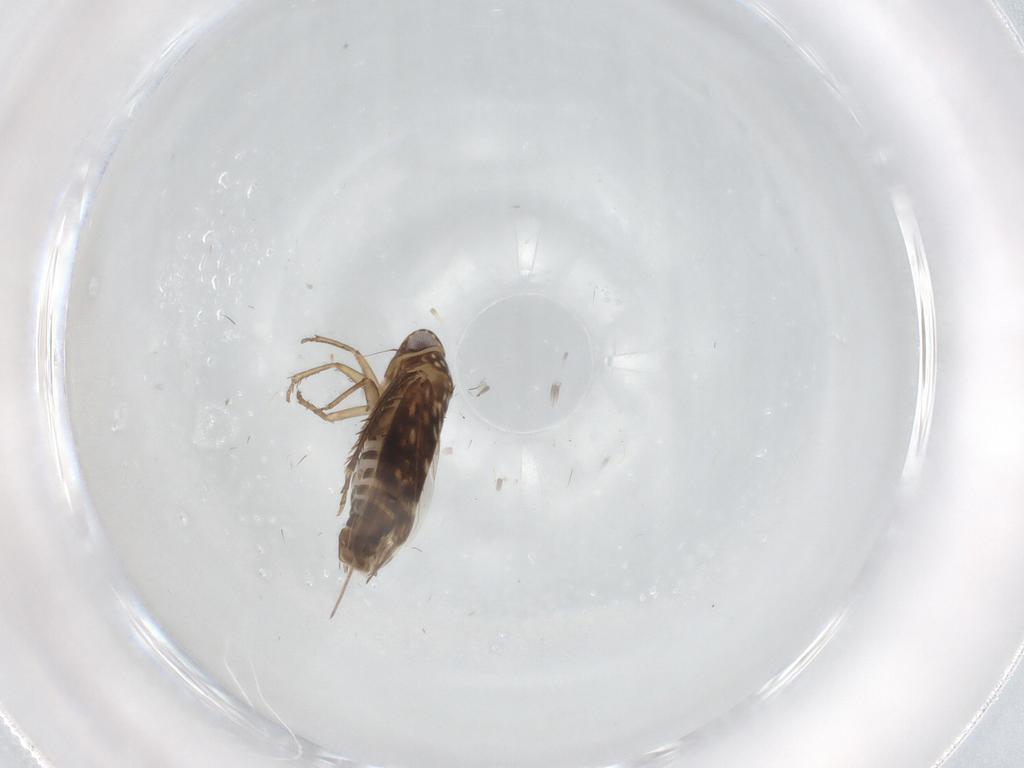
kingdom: Animalia
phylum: Arthropoda
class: Insecta
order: Hemiptera
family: Cicadellidae
